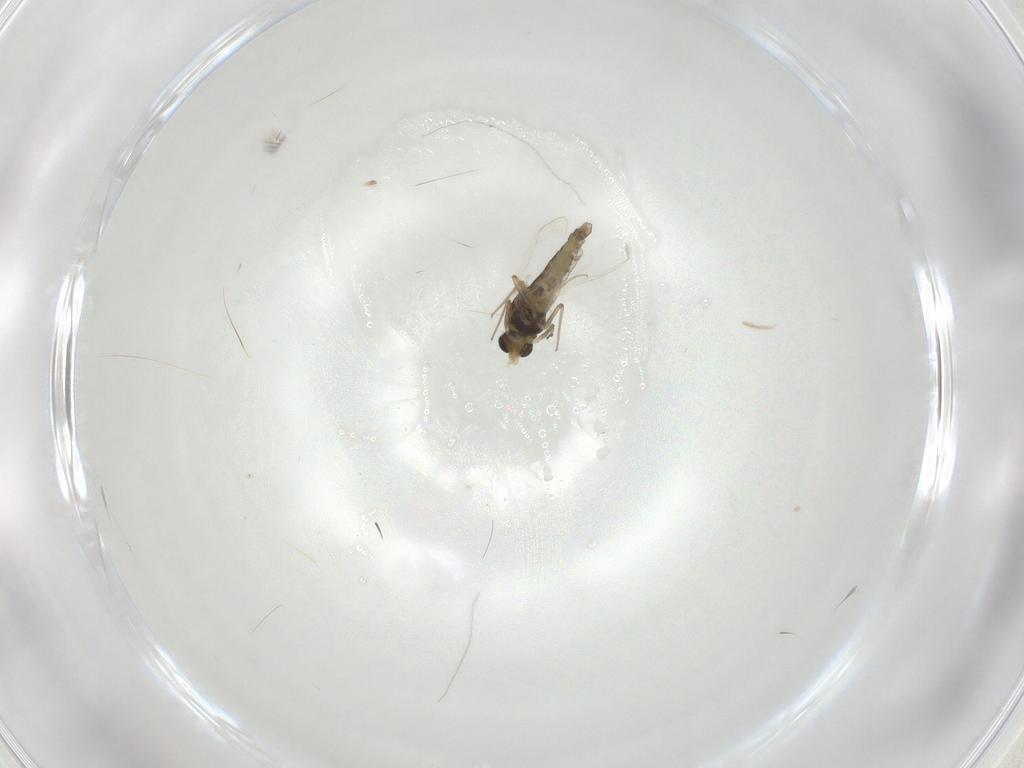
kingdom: Animalia
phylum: Arthropoda
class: Insecta
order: Diptera
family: Chironomidae
